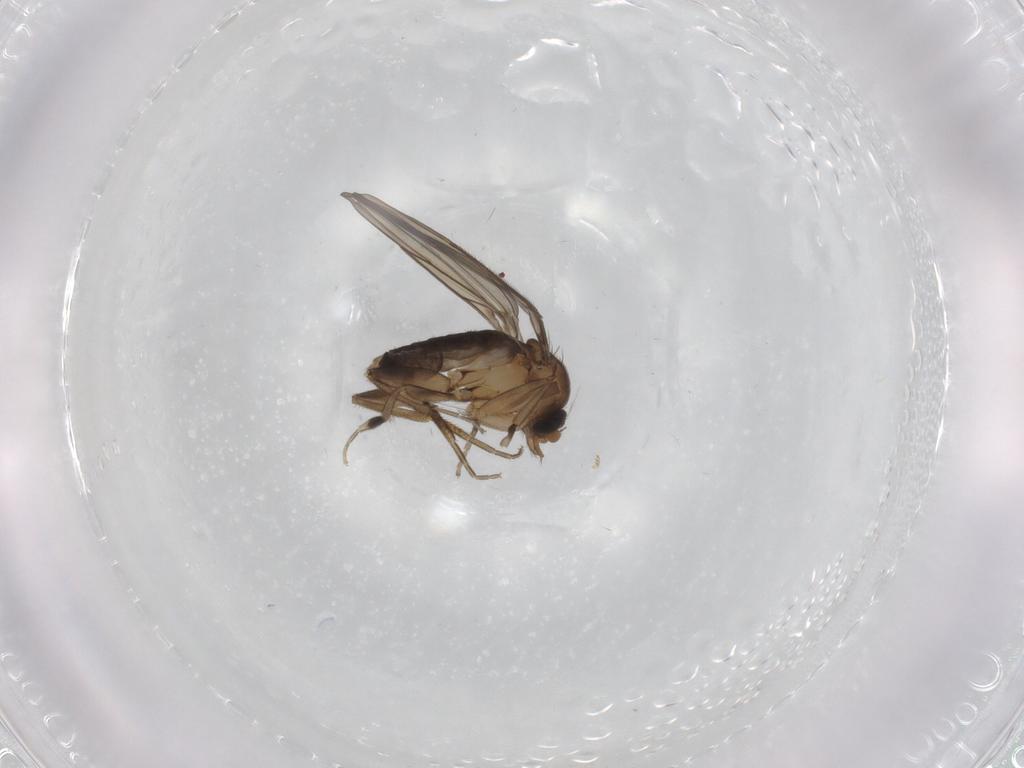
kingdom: Animalia
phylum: Arthropoda
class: Insecta
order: Diptera
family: Phoridae
